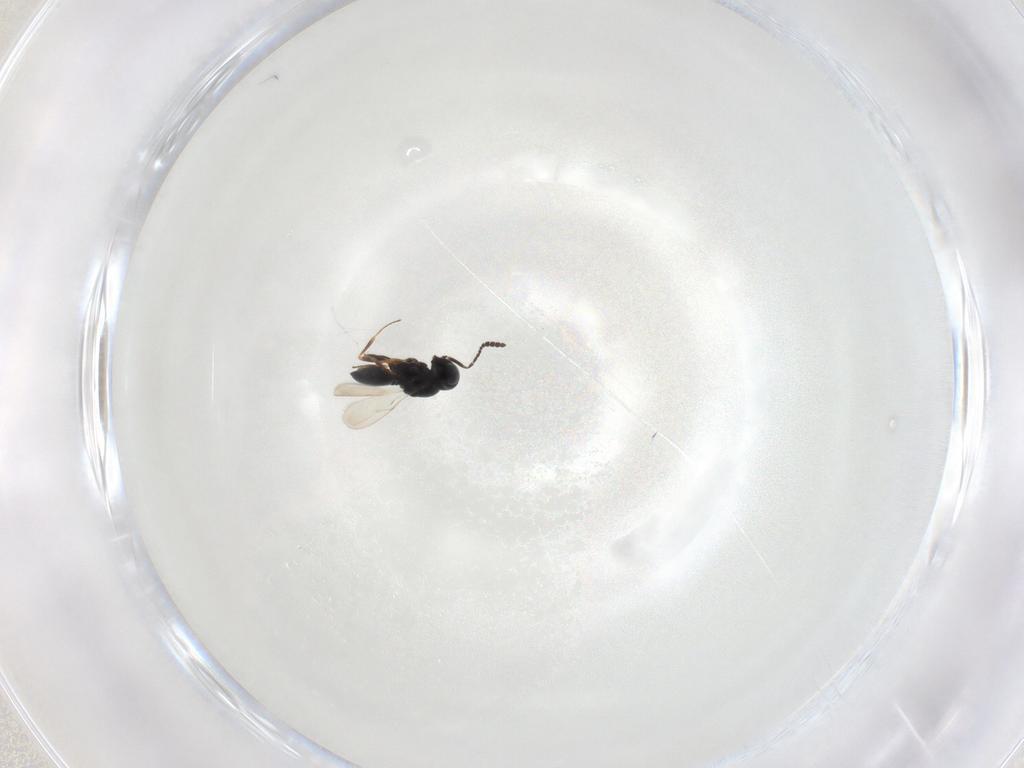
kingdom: Animalia
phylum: Arthropoda
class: Insecta
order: Hymenoptera
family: Scelionidae
